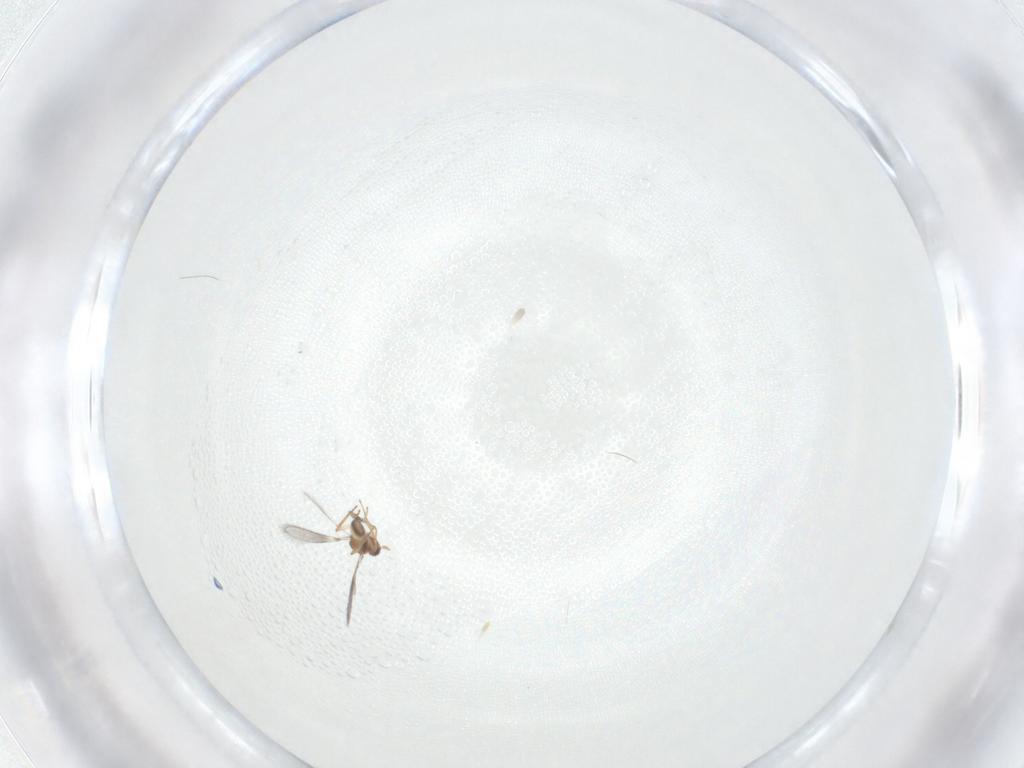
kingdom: Animalia
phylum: Arthropoda
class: Insecta
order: Hymenoptera
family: Mymaridae
